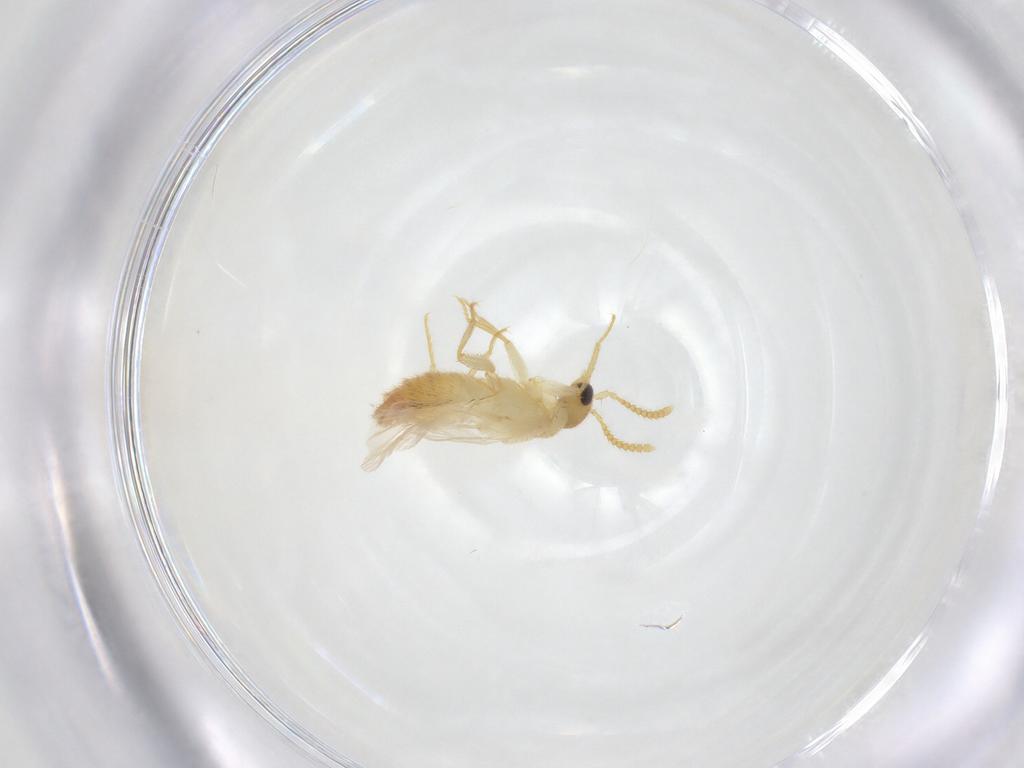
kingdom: Animalia
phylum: Arthropoda
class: Insecta
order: Coleoptera
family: Staphylinidae
